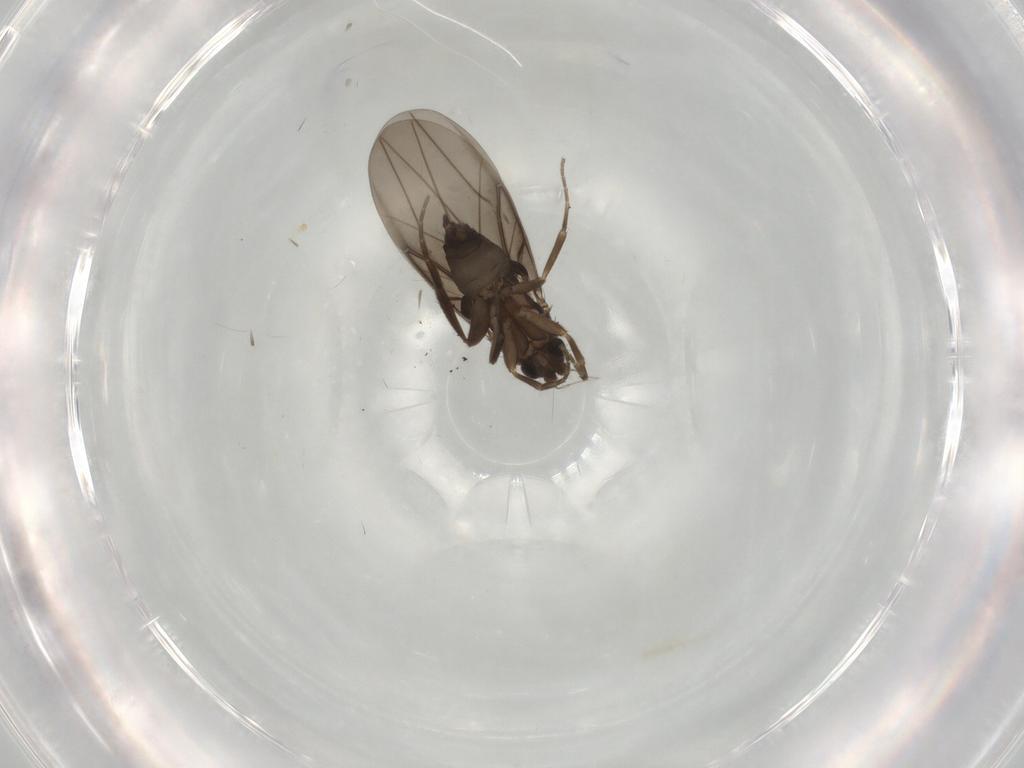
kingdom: Animalia
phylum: Arthropoda
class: Insecta
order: Diptera
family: Phoridae
